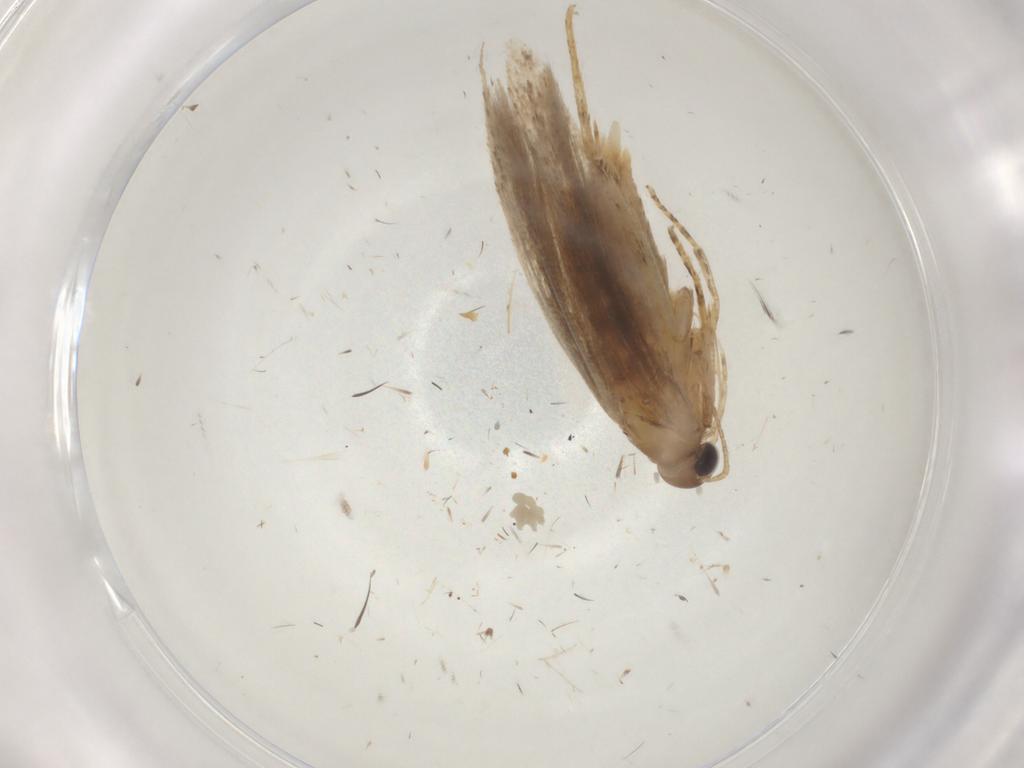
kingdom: Animalia
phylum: Arthropoda
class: Insecta
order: Lepidoptera
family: Gelechiidae
